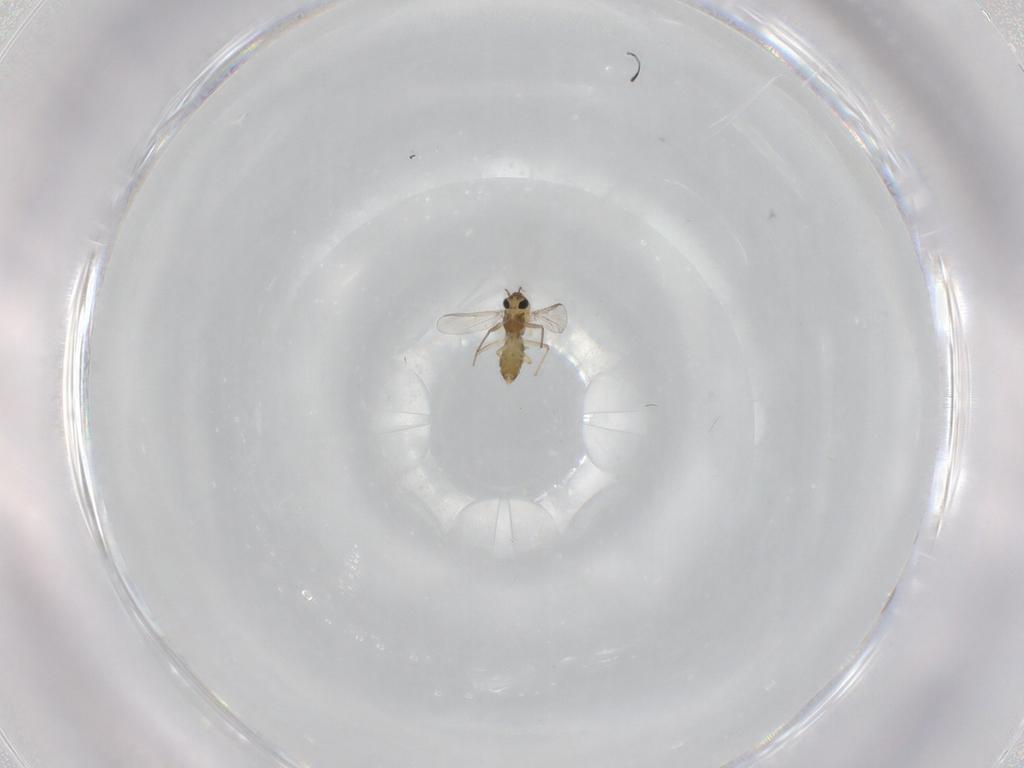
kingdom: Animalia
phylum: Arthropoda
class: Insecta
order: Diptera
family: Chironomidae
